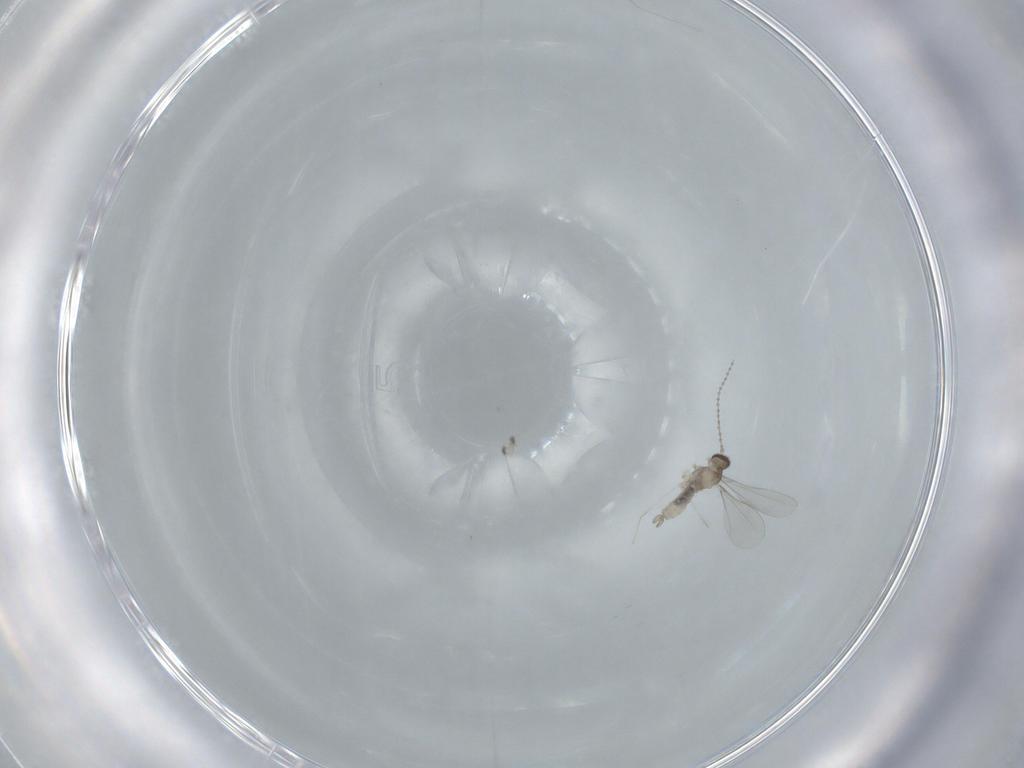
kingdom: Animalia
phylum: Arthropoda
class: Insecta
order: Diptera
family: Cecidomyiidae
